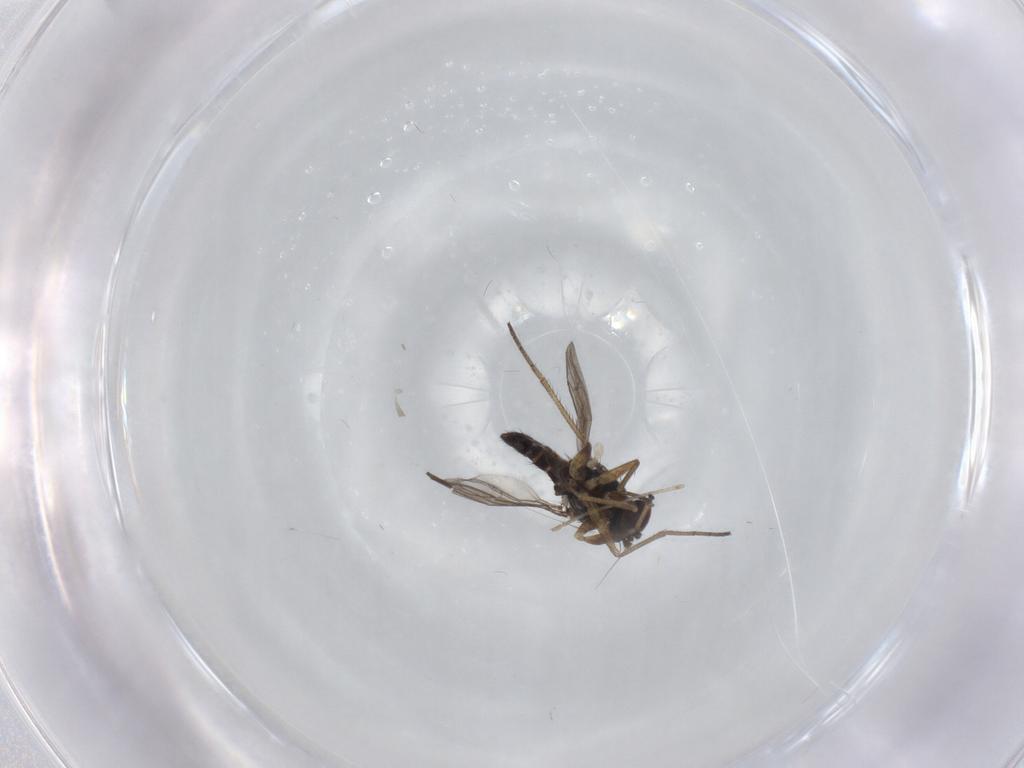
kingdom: Animalia
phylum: Arthropoda
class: Insecta
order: Diptera
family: Dolichopodidae
